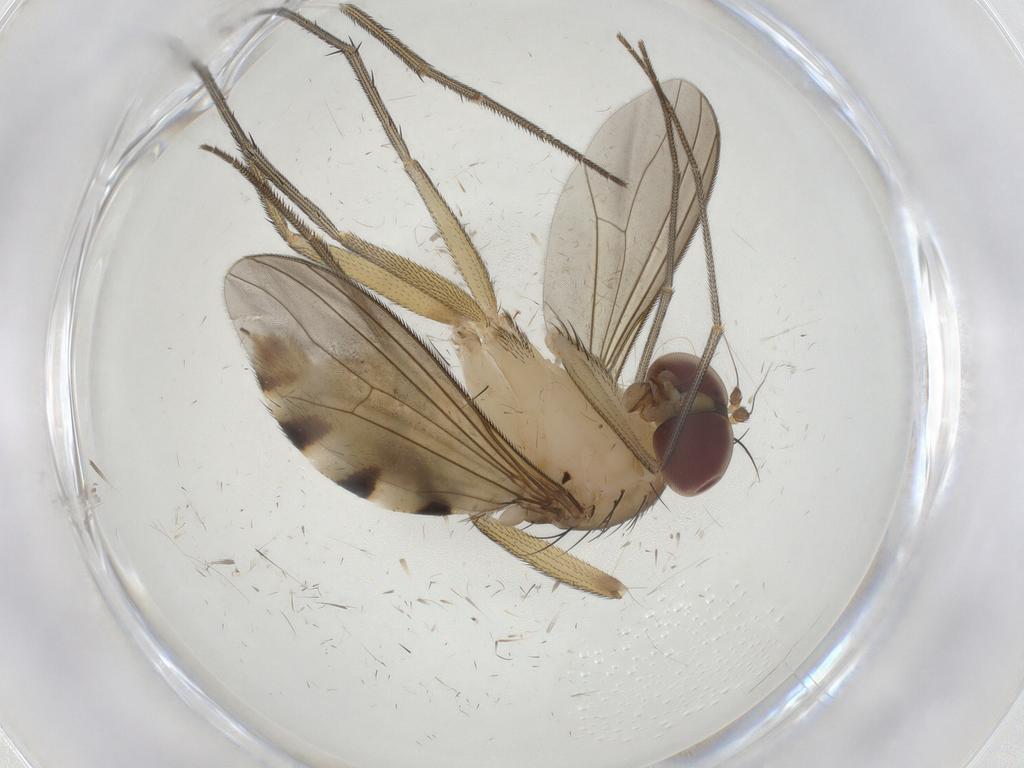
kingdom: Animalia
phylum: Arthropoda
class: Insecta
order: Diptera
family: Dolichopodidae
